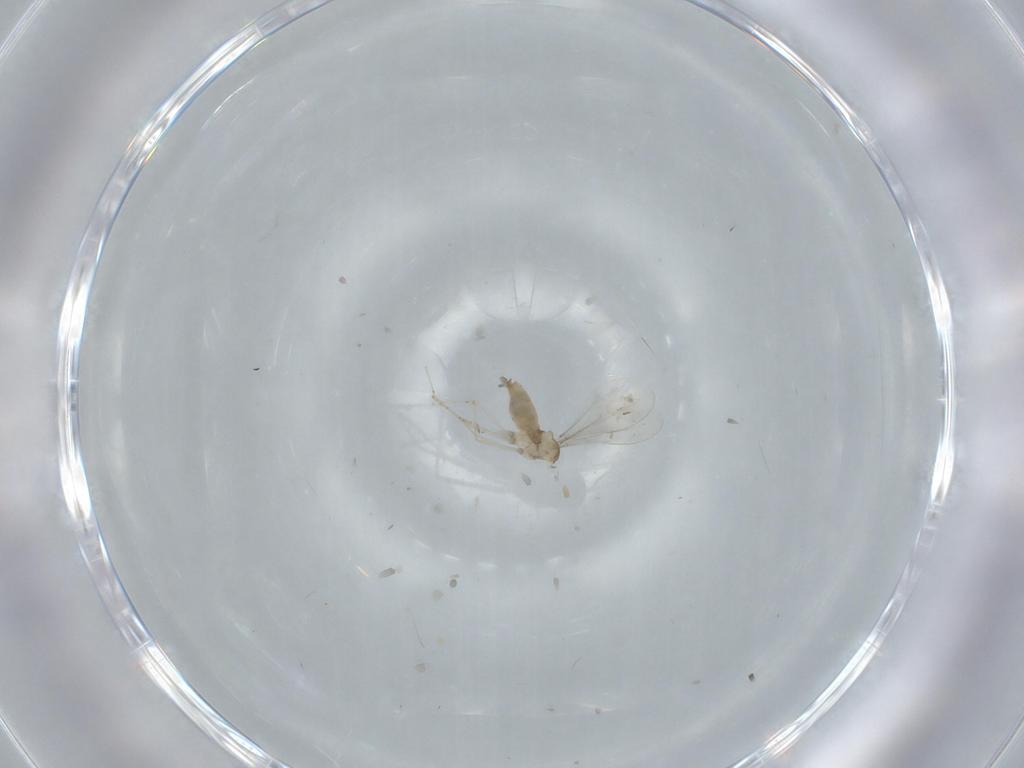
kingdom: Animalia
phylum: Arthropoda
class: Insecta
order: Diptera
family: Cecidomyiidae
